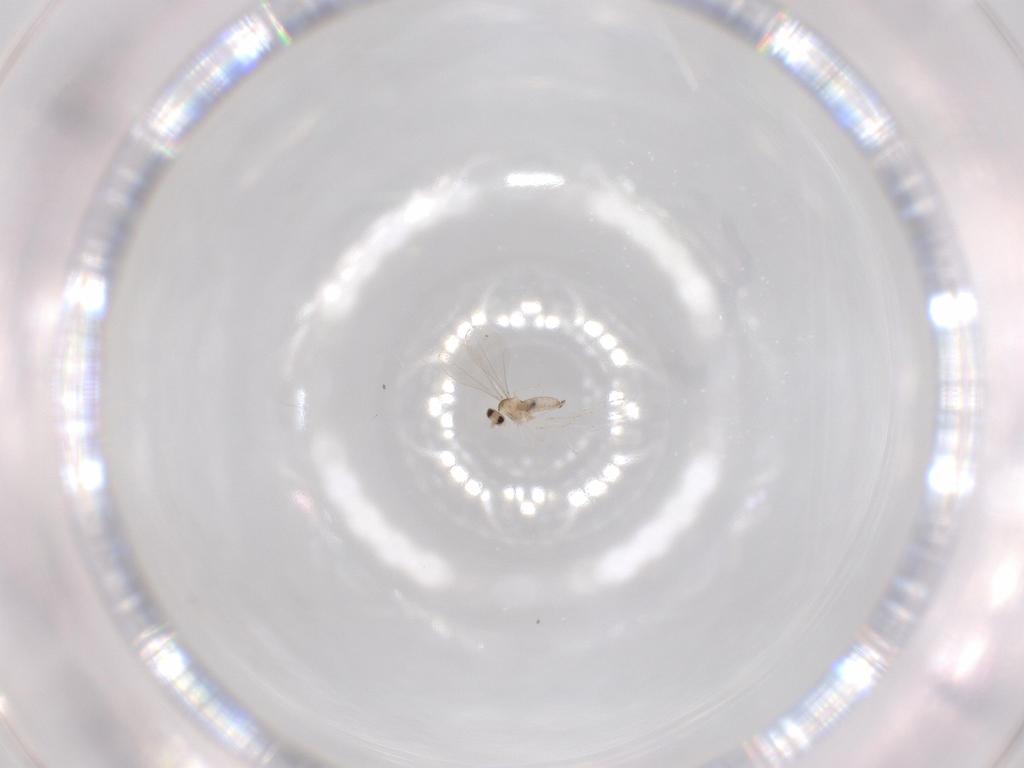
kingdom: Animalia
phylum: Arthropoda
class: Insecta
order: Diptera
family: Cecidomyiidae
